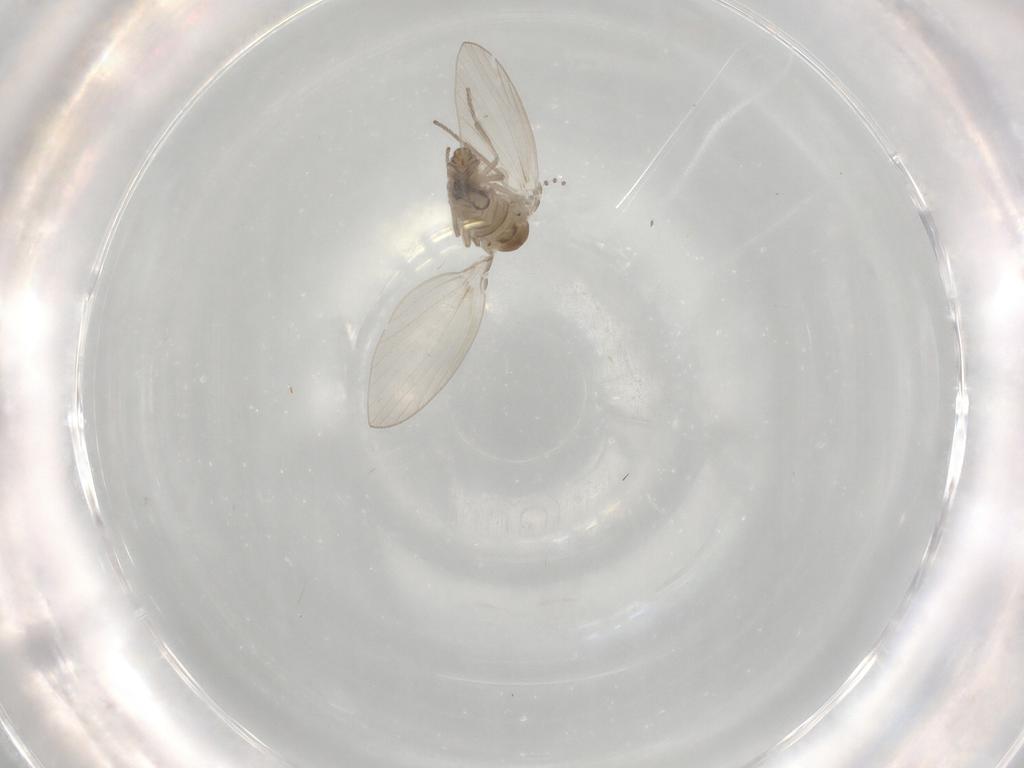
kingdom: Animalia
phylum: Arthropoda
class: Insecta
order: Diptera
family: Psychodidae
